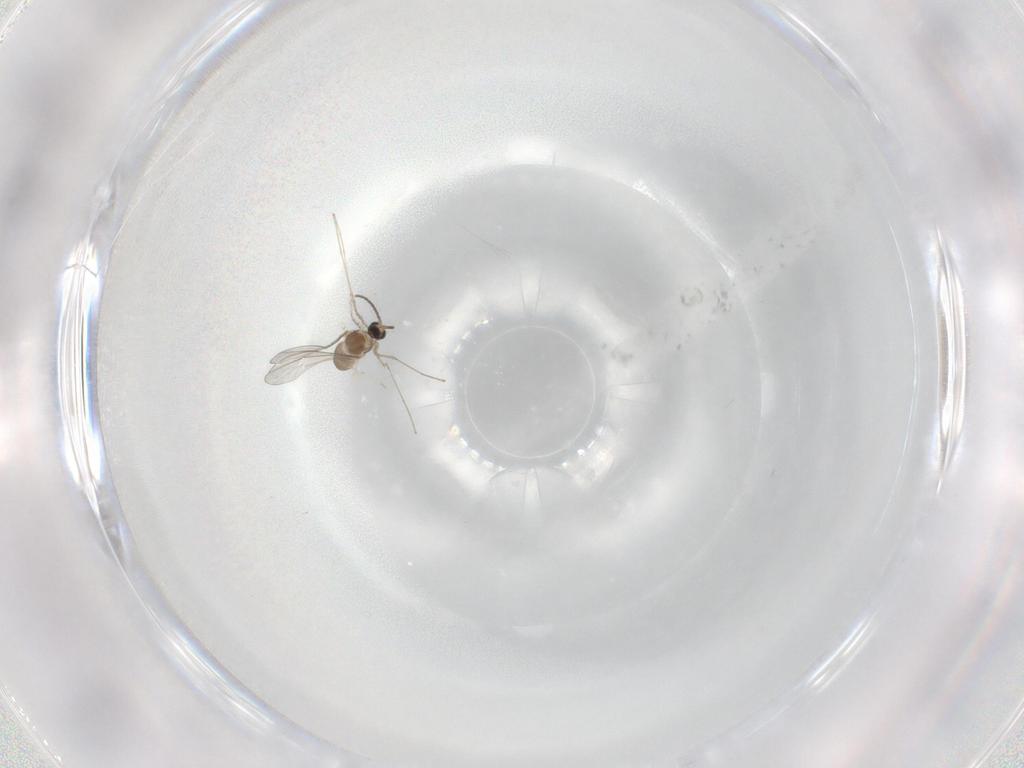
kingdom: Animalia
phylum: Arthropoda
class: Insecta
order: Diptera
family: Cecidomyiidae
